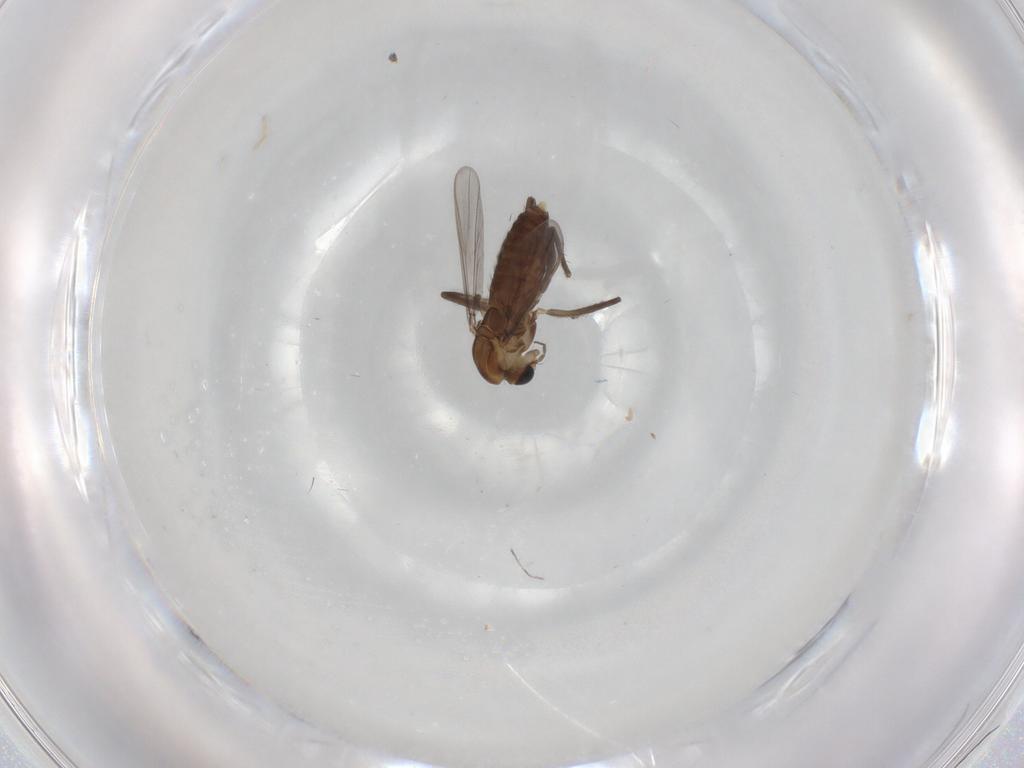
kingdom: Animalia
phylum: Arthropoda
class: Insecta
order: Diptera
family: Chironomidae
